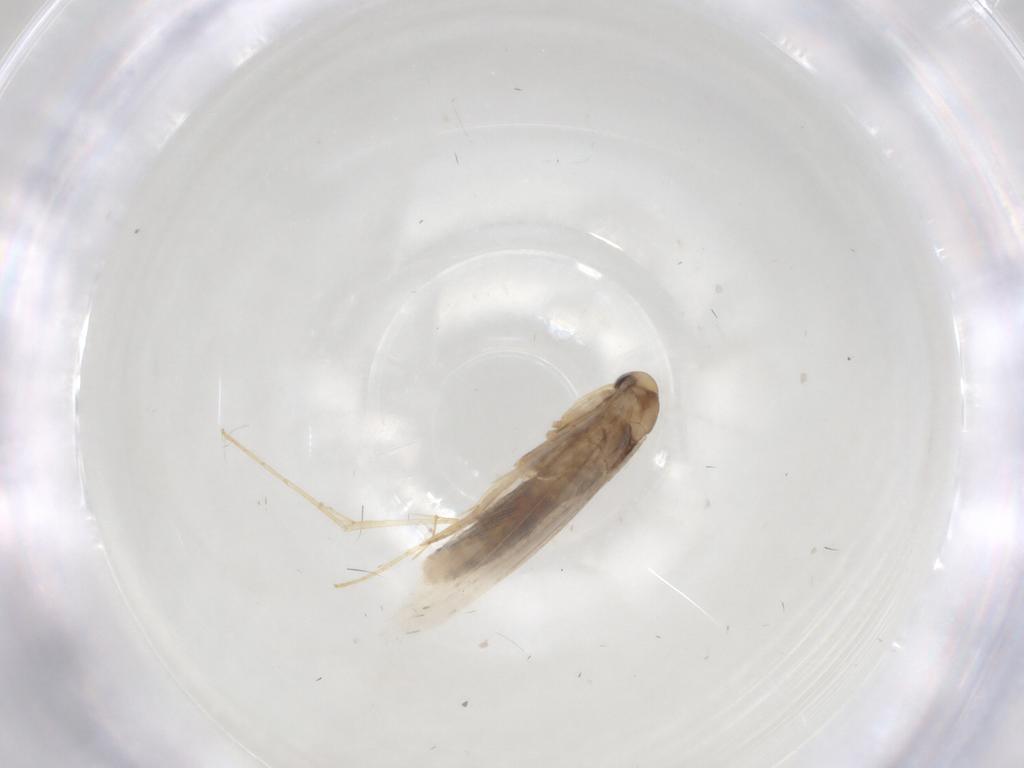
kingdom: Animalia
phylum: Arthropoda
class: Insecta
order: Lepidoptera
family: Gracillariidae
